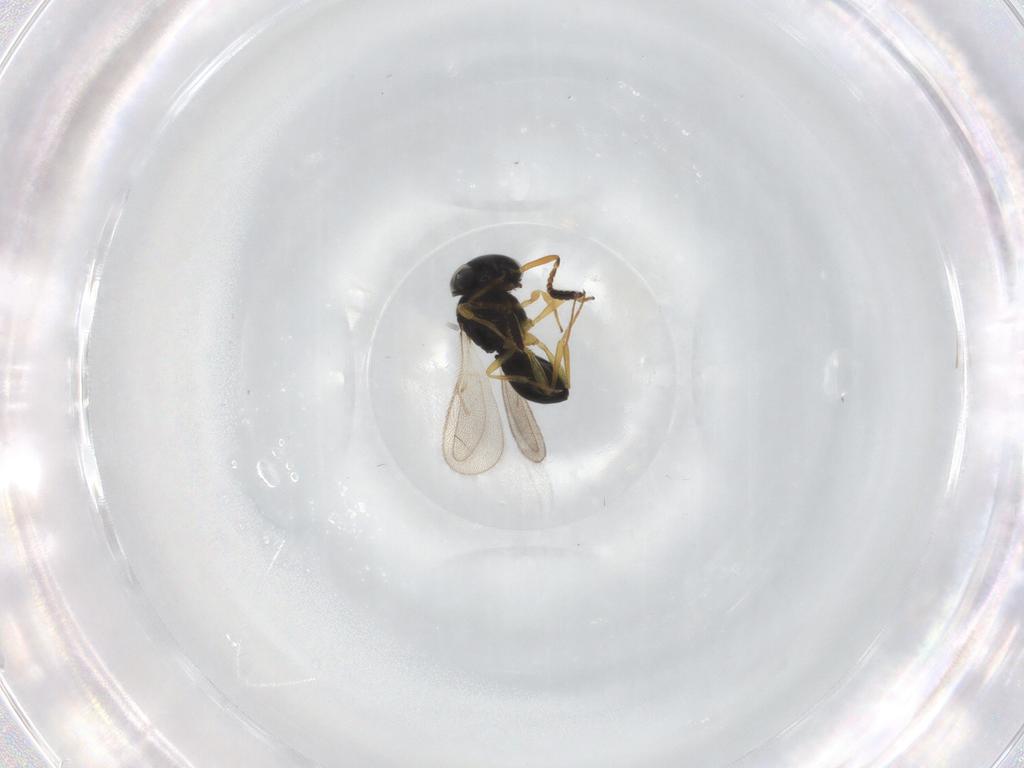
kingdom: Animalia
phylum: Arthropoda
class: Insecta
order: Hymenoptera
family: Scelionidae
